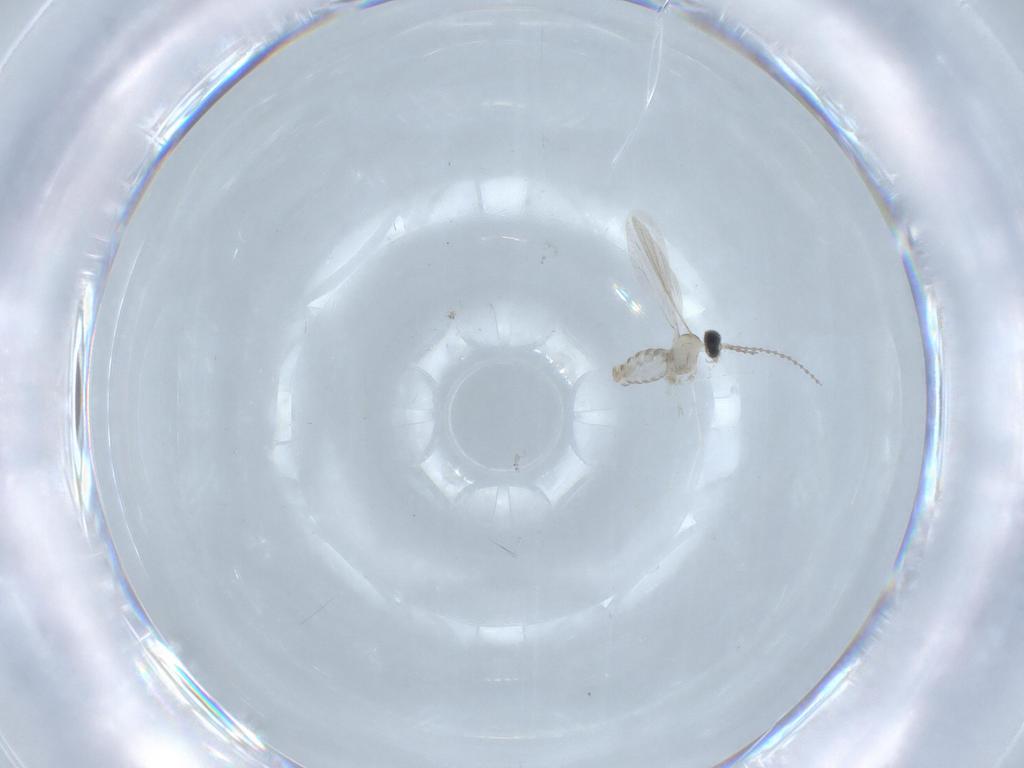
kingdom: Animalia
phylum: Arthropoda
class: Insecta
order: Diptera
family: Cecidomyiidae
